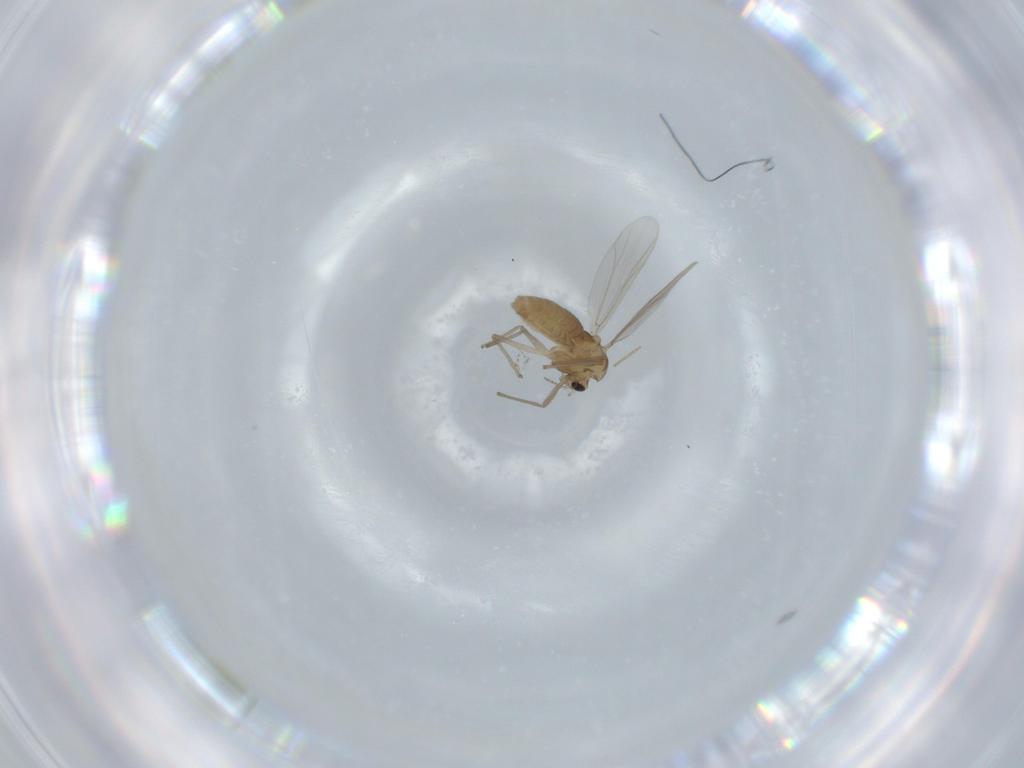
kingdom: Animalia
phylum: Arthropoda
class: Insecta
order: Diptera
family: Chironomidae
